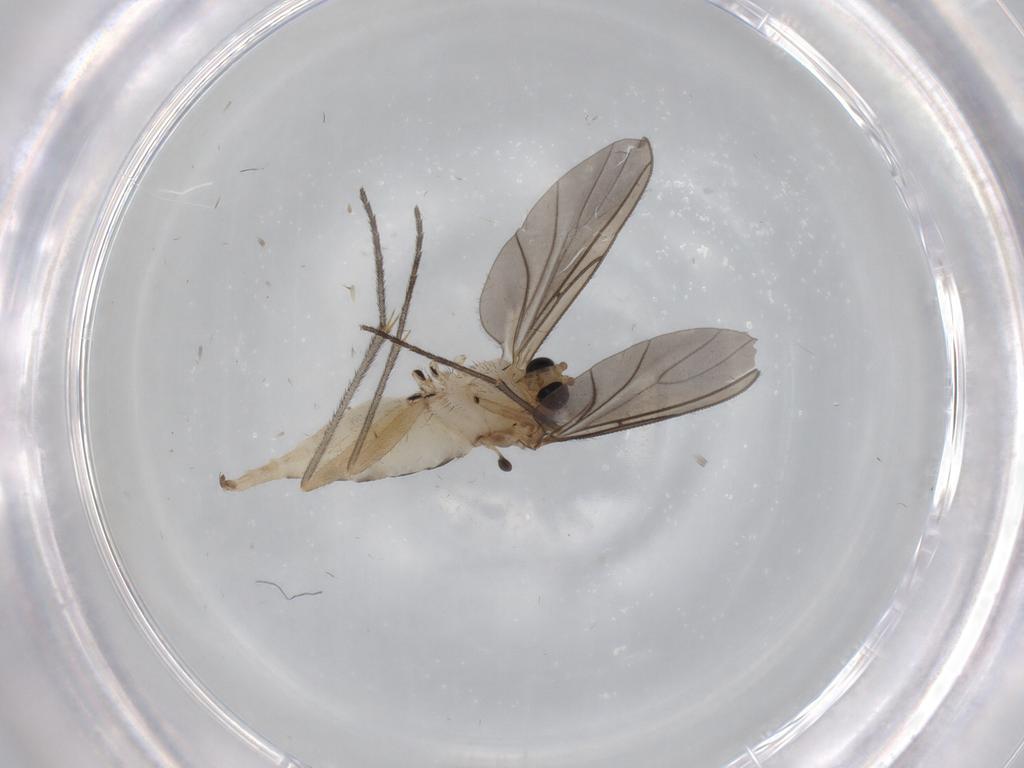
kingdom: Animalia
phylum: Arthropoda
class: Insecta
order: Diptera
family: Sciaridae
